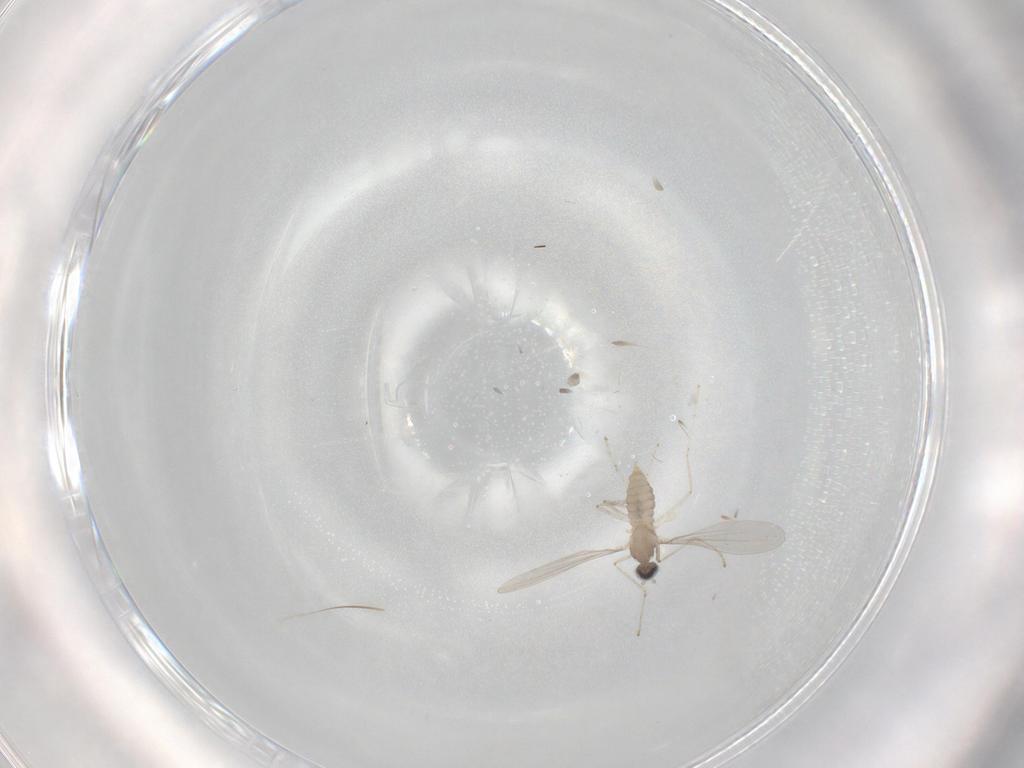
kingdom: Animalia
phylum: Arthropoda
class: Insecta
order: Diptera
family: Cecidomyiidae
